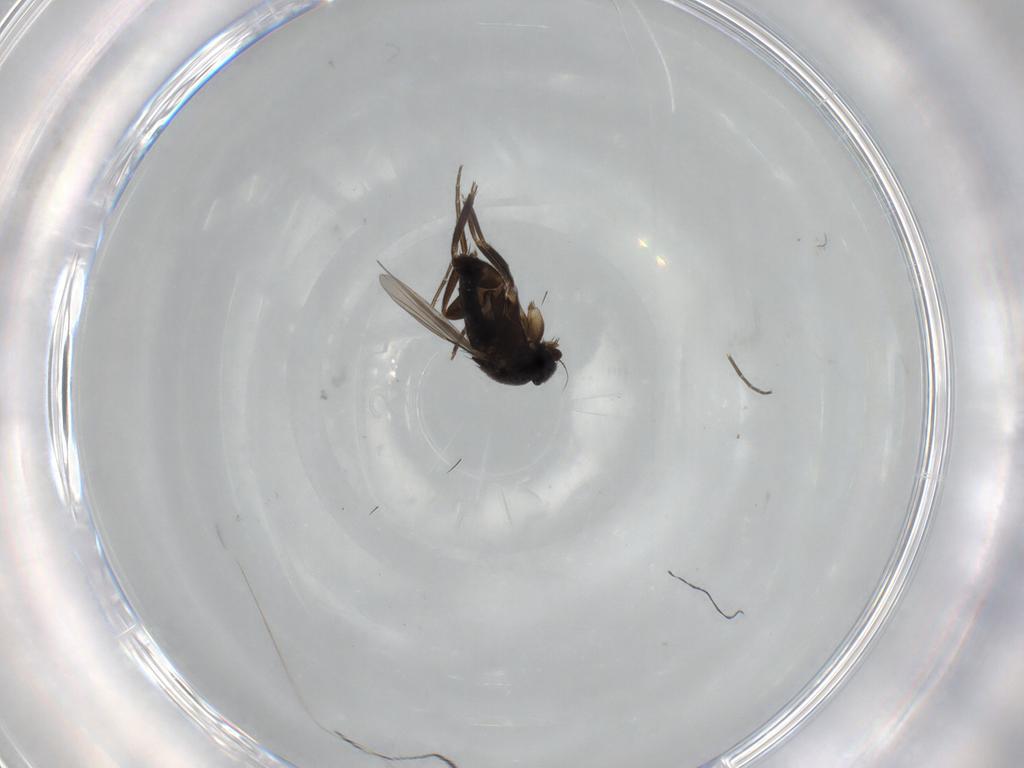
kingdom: Animalia
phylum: Arthropoda
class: Insecta
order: Diptera
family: Phoridae
